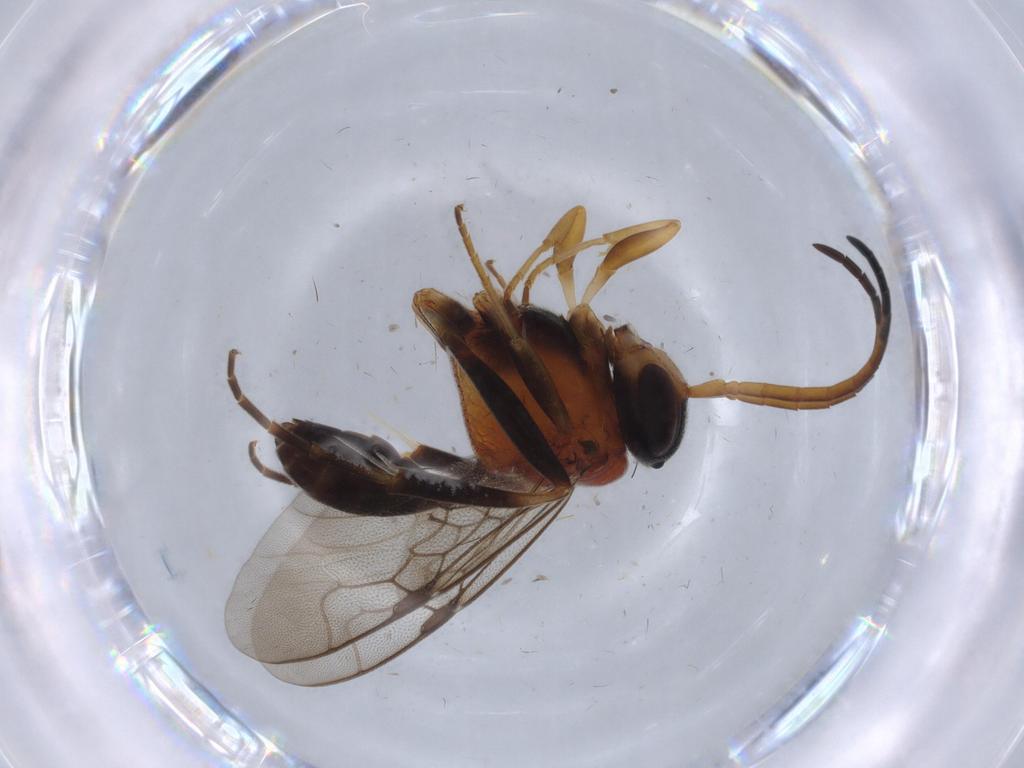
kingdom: Animalia
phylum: Arthropoda
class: Insecta
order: Hymenoptera
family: Evaniidae
